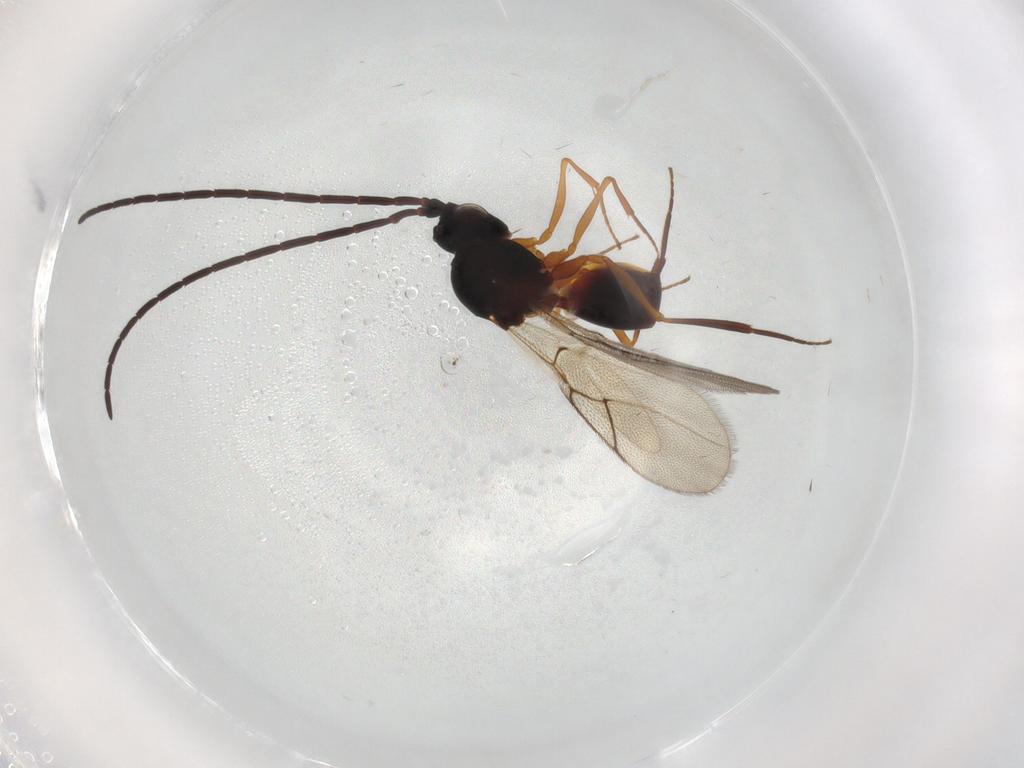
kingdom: Animalia
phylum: Arthropoda
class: Insecta
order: Hymenoptera
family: Figitidae
